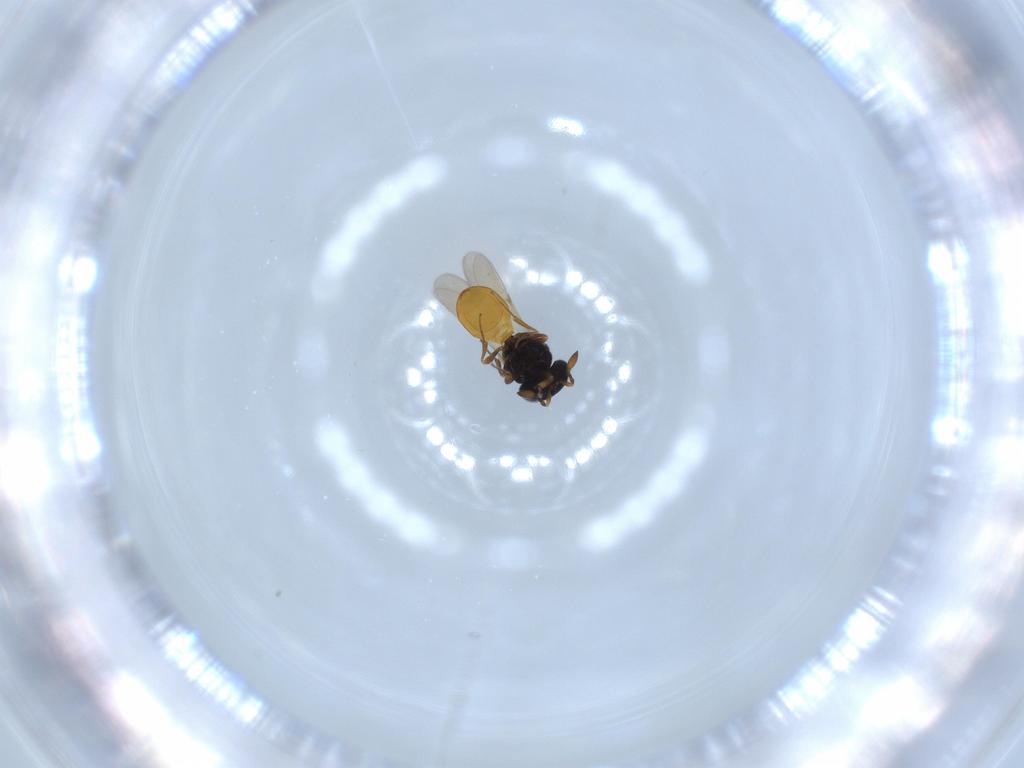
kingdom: Animalia
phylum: Arthropoda
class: Insecta
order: Hymenoptera
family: Scelionidae
